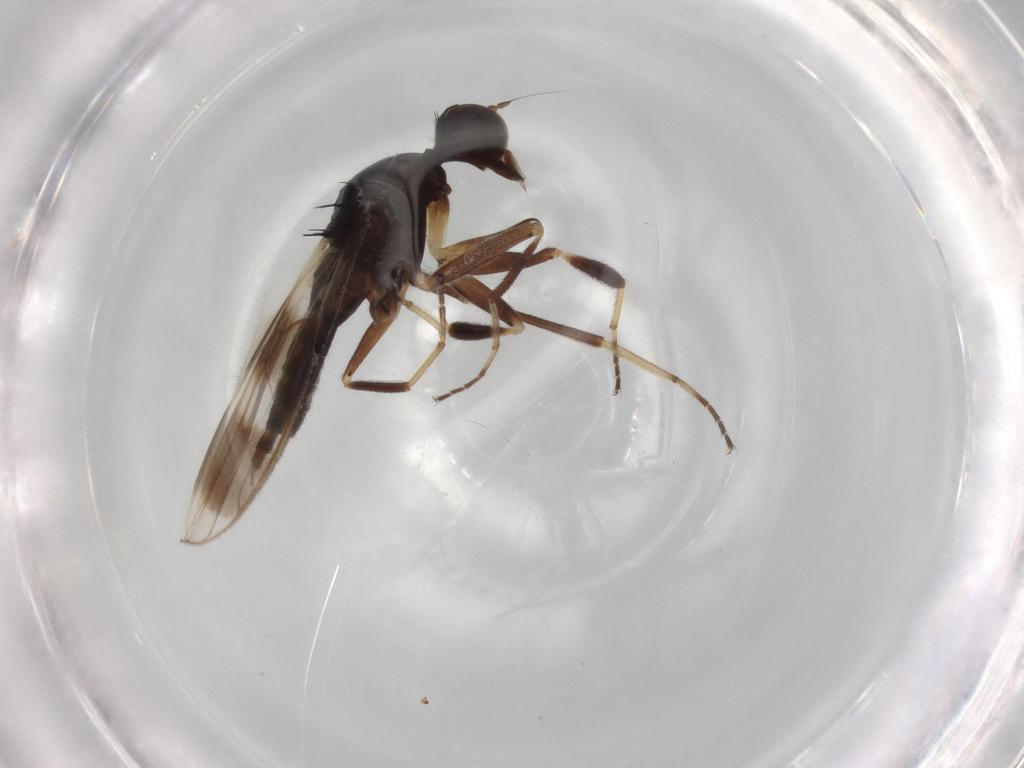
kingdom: Animalia
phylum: Arthropoda
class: Insecta
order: Diptera
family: Hybotidae
